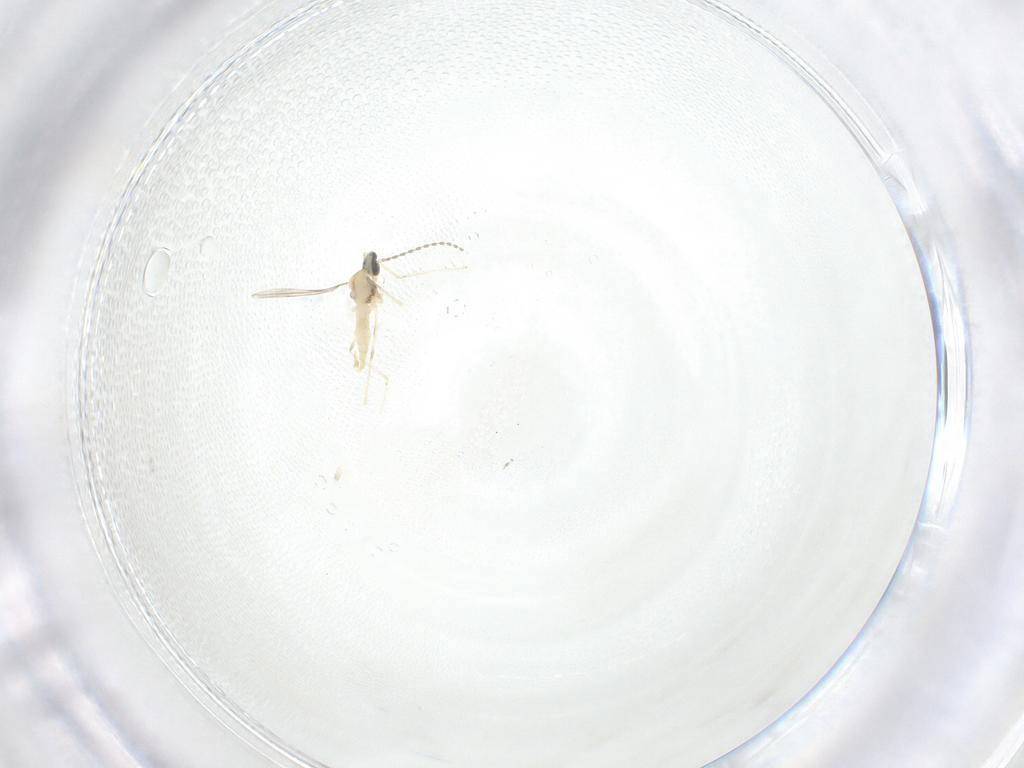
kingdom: Animalia
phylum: Arthropoda
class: Insecta
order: Diptera
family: Cecidomyiidae
